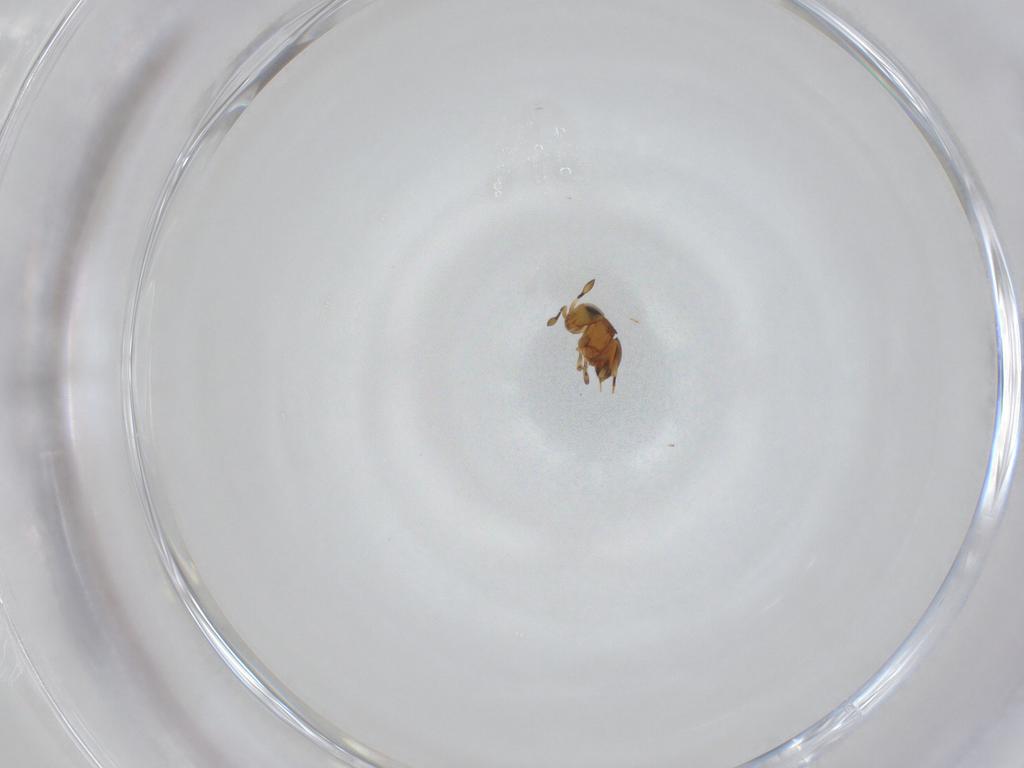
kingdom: Animalia
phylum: Arthropoda
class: Insecta
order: Hymenoptera
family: Scelionidae
